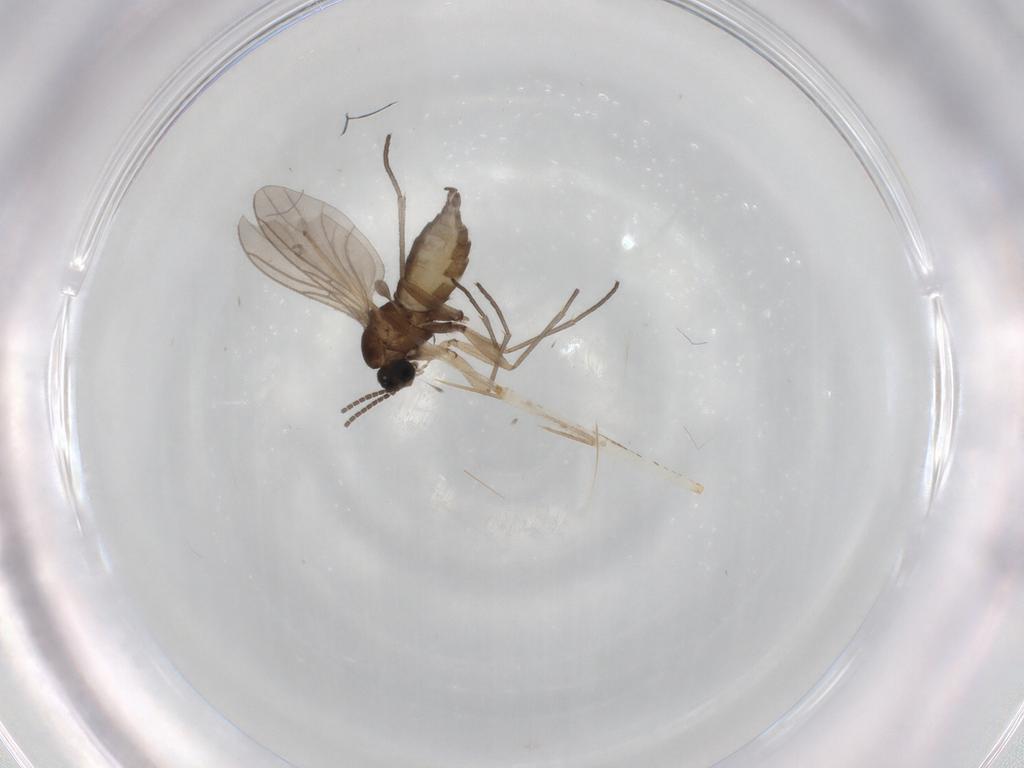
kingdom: Animalia
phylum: Arthropoda
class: Insecta
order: Diptera
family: Sciaridae
